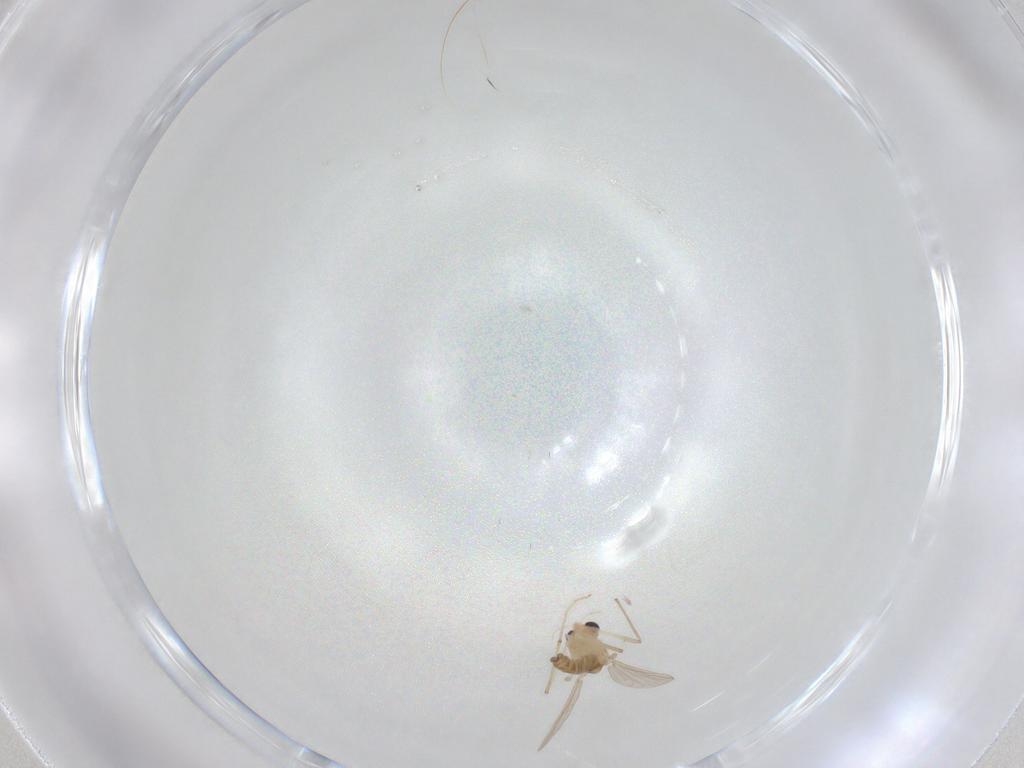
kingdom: Animalia
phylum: Arthropoda
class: Insecta
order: Diptera
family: Chironomidae
